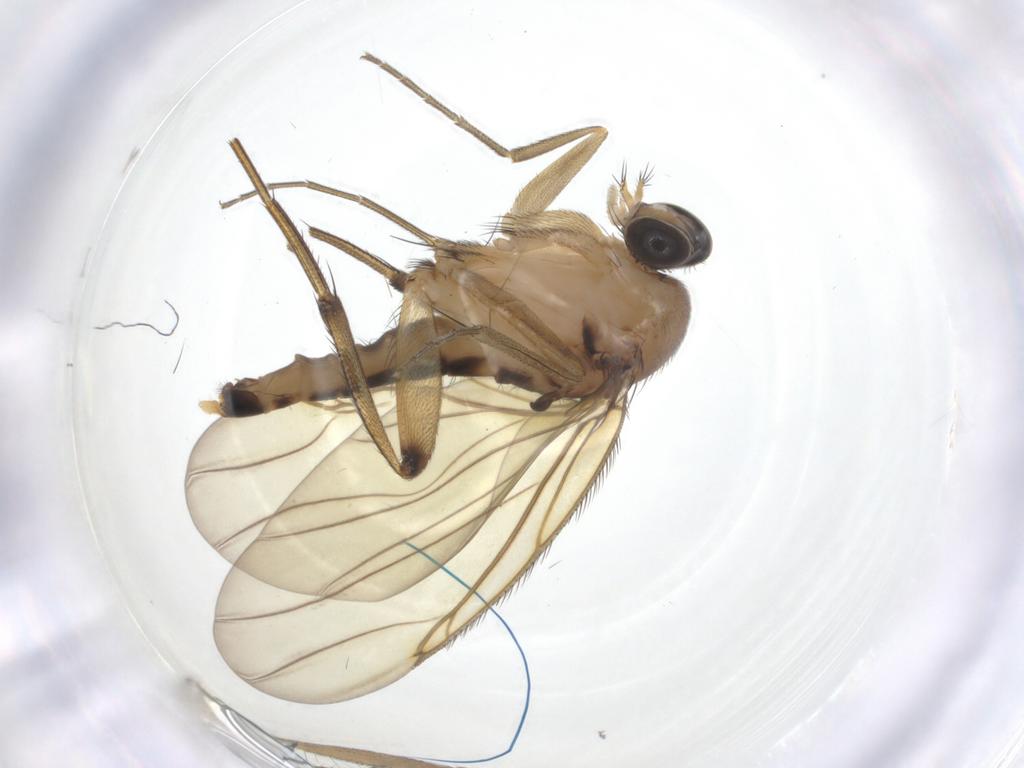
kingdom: Animalia
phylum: Arthropoda
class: Insecta
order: Diptera
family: Phoridae
